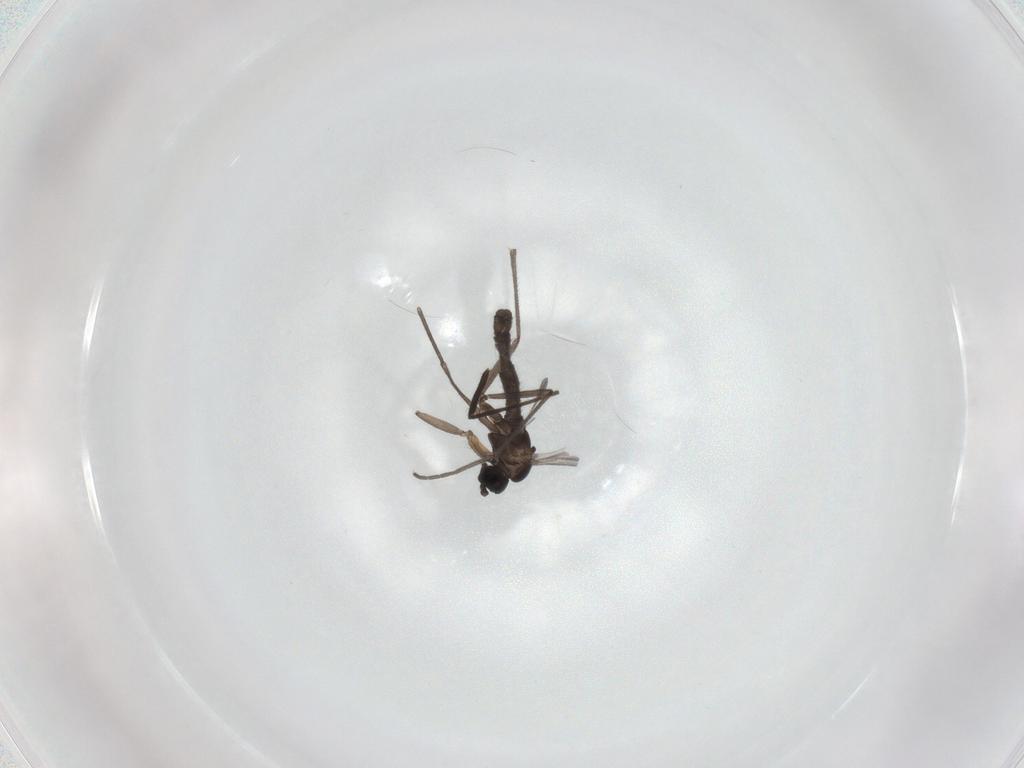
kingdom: Animalia
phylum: Arthropoda
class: Insecta
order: Diptera
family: Sciaridae
